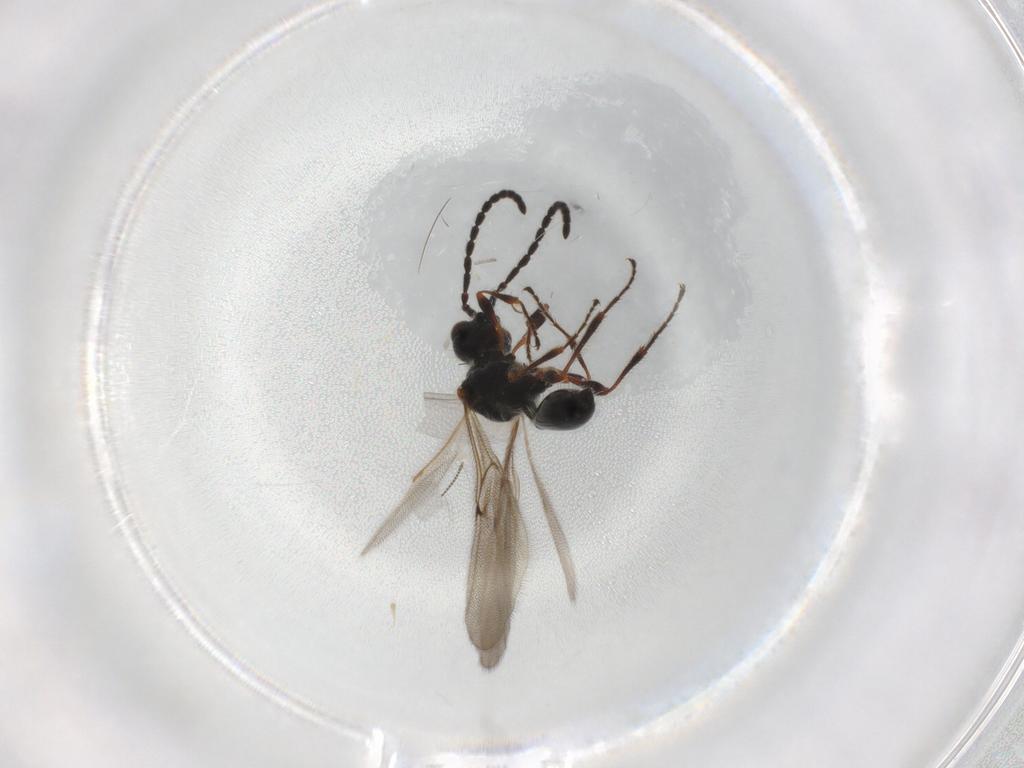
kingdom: Animalia
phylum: Arthropoda
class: Insecta
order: Hymenoptera
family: Diapriidae
